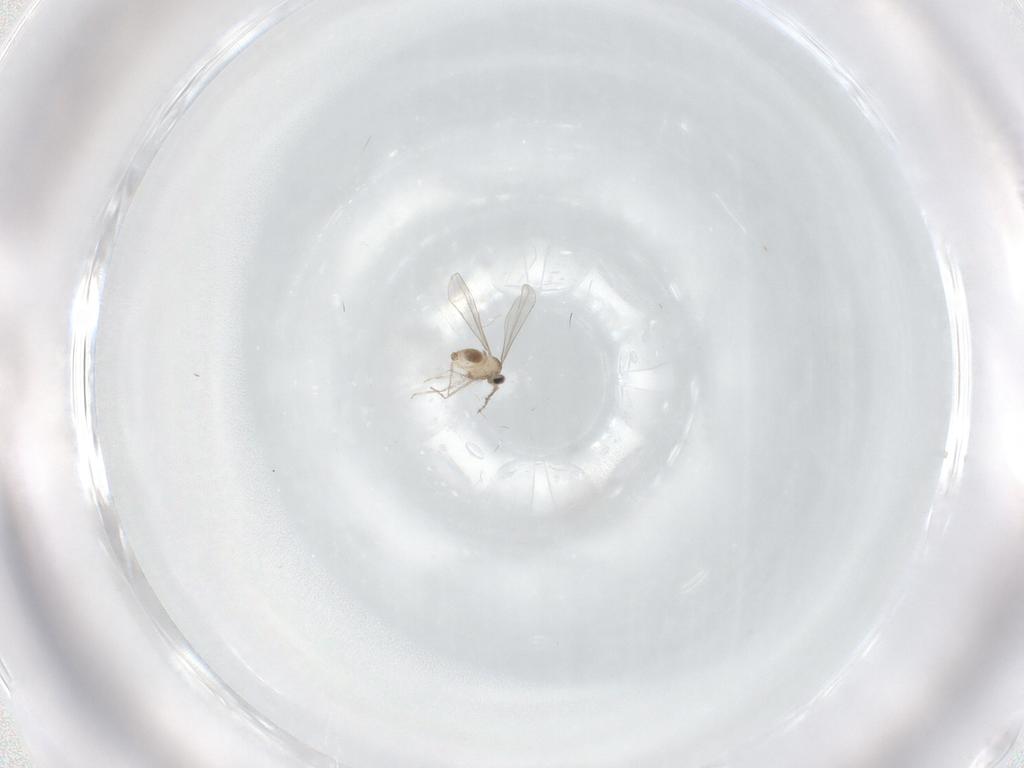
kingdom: Animalia
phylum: Arthropoda
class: Insecta
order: Diptera
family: Cecidomyiidae
